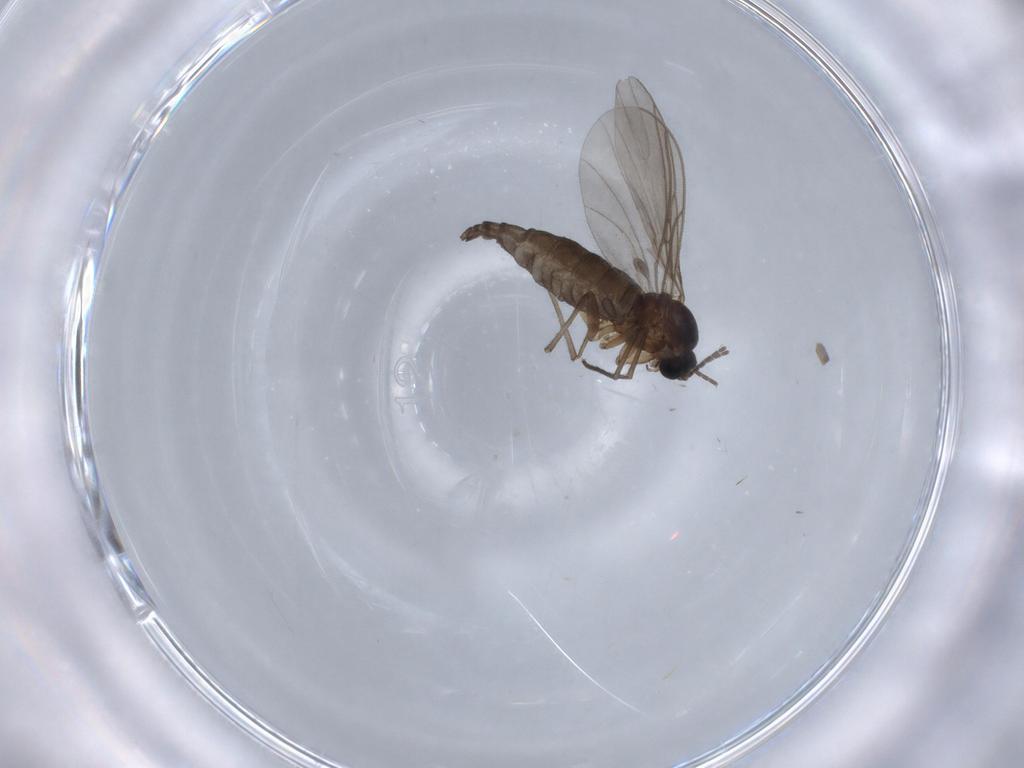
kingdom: Animalia
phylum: Arthropoda
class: Insecta
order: Diptera
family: Sciaridae
